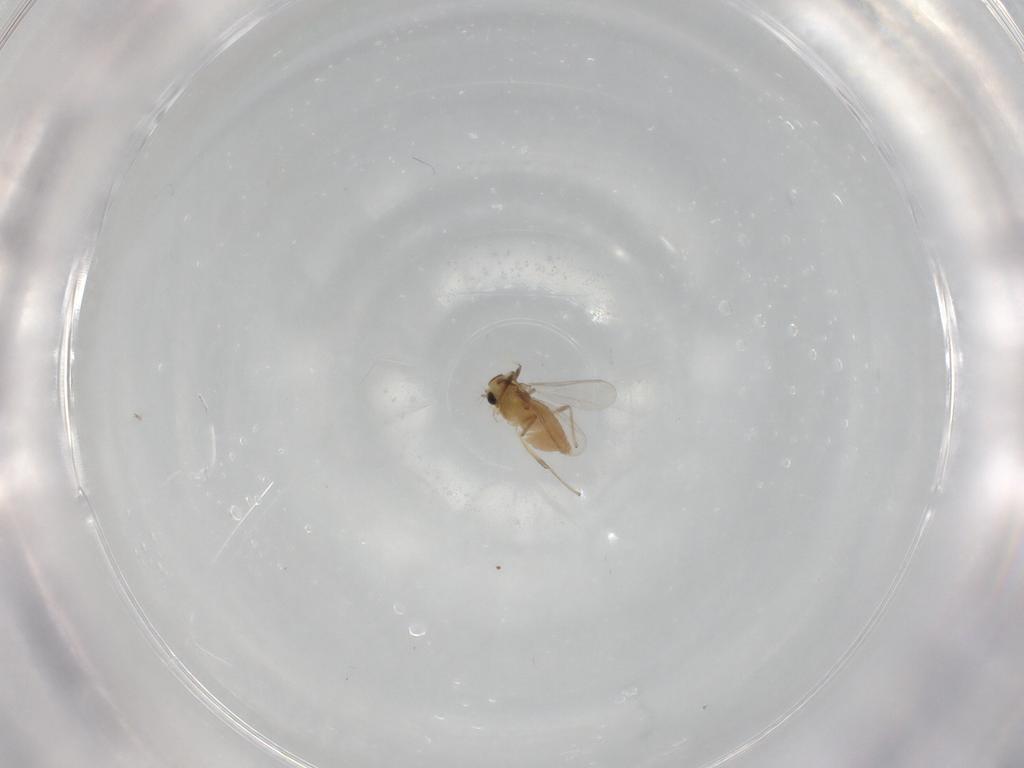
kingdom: Animalia
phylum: Arthropoda
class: Insecta
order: Diptera
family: Chironomidae
